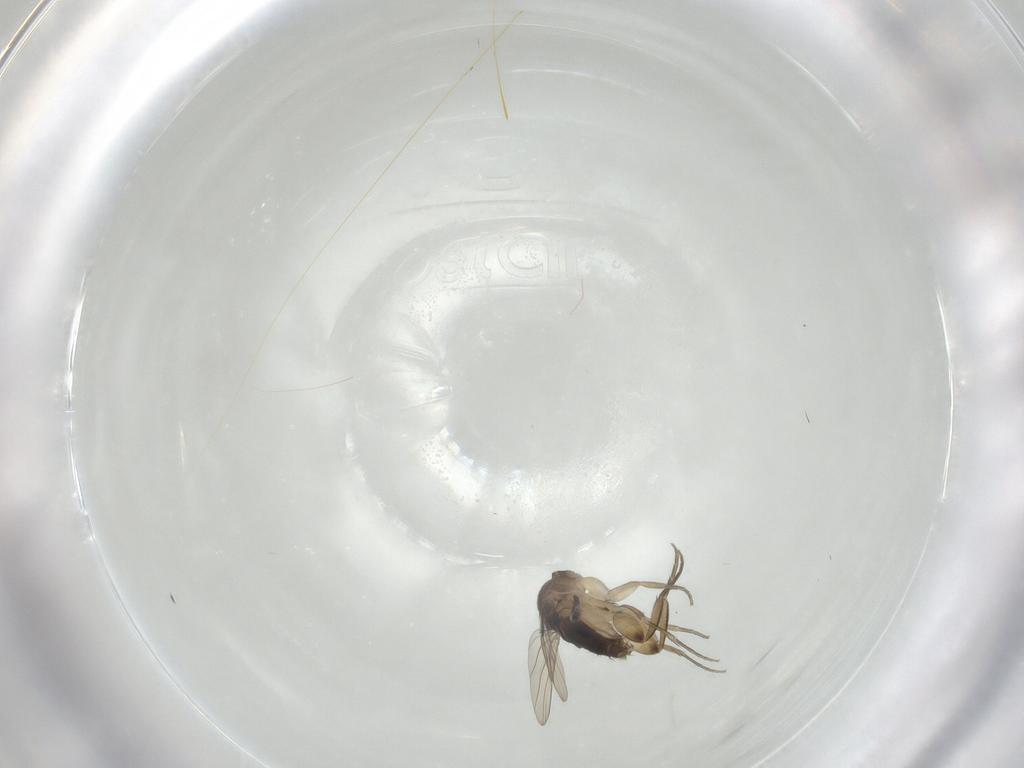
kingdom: Animalia
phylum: Arthropoda
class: Insecta
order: Diptera
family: Phoridae
